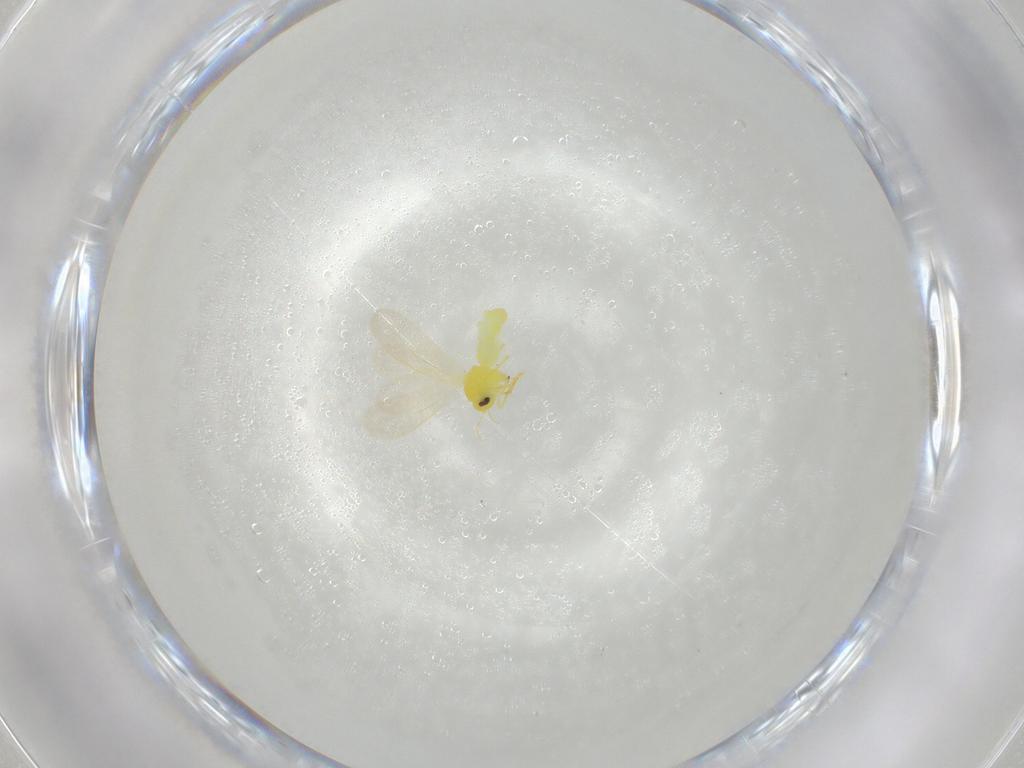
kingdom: Animalia
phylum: Arthropoda
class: Insecta
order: Hemiptera
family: Aleyrodidae
